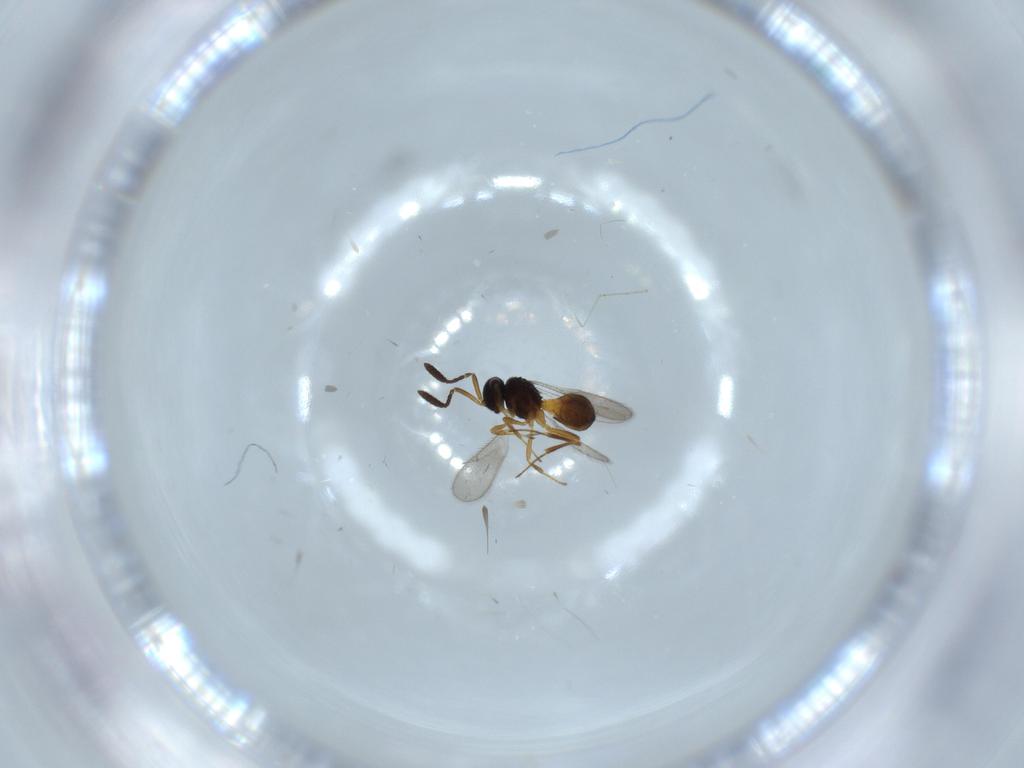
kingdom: Animalia
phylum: Arthropoda
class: Insecta
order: Hymenoptera
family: Scelionidae
